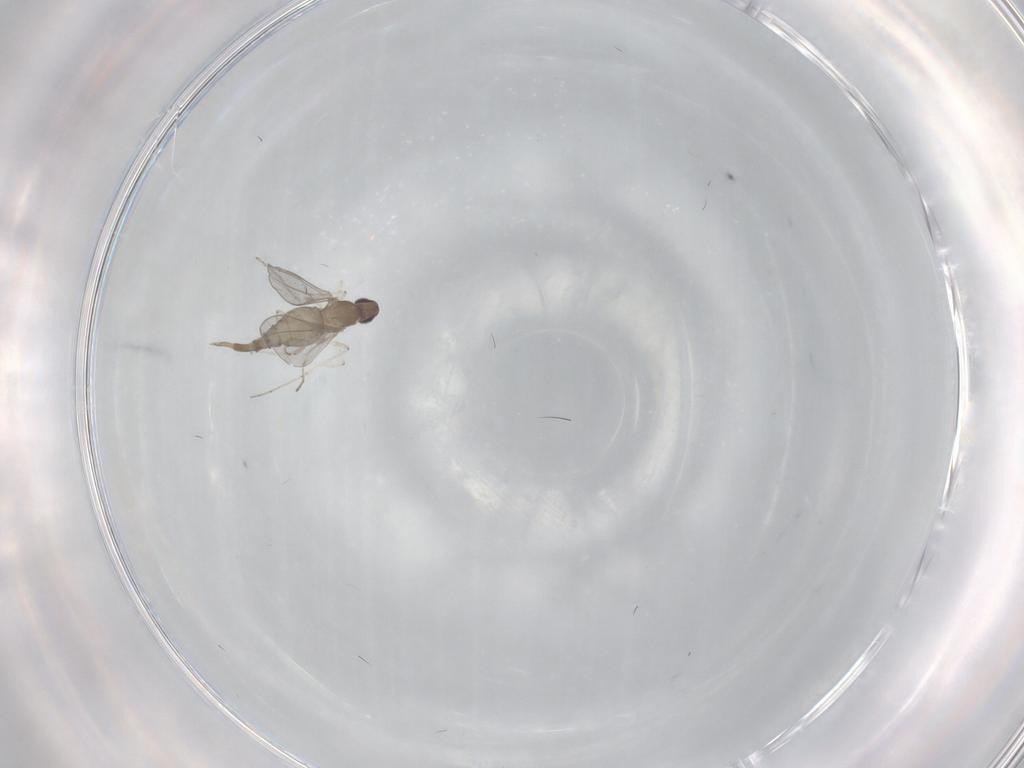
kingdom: Animalia
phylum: Arthropoda
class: Insecta
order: Diptera
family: Cecidomyiidae
